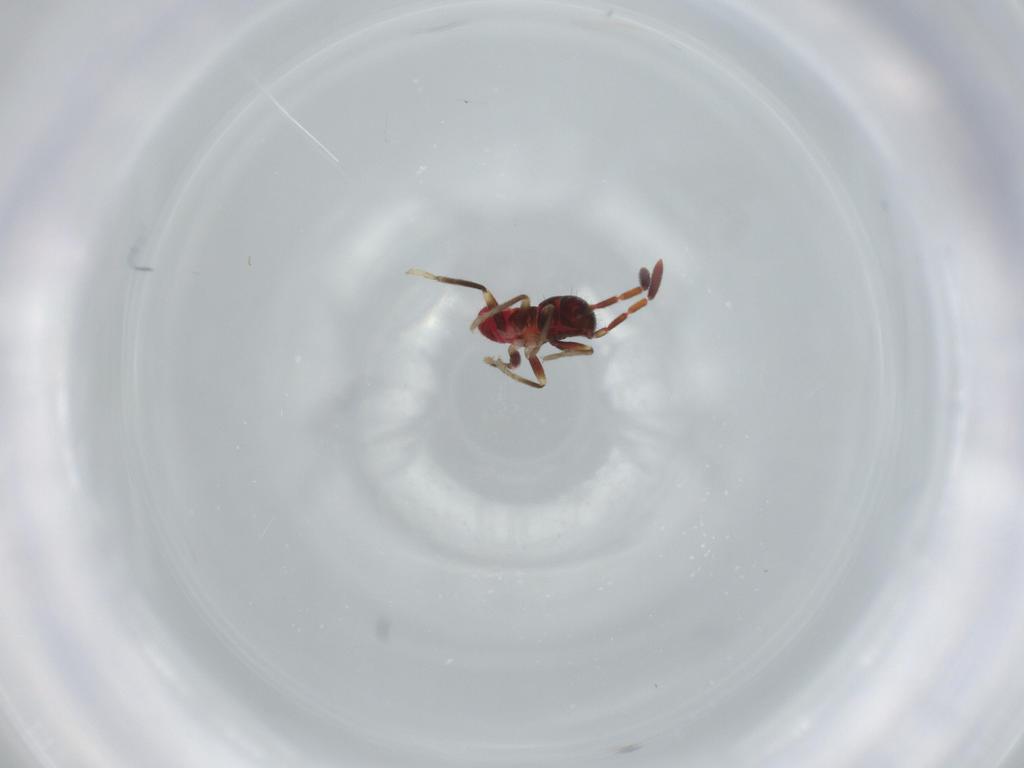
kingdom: Animalia
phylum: Arthropoda
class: Insecta
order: Hemiptera
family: Rhyparochromidae
